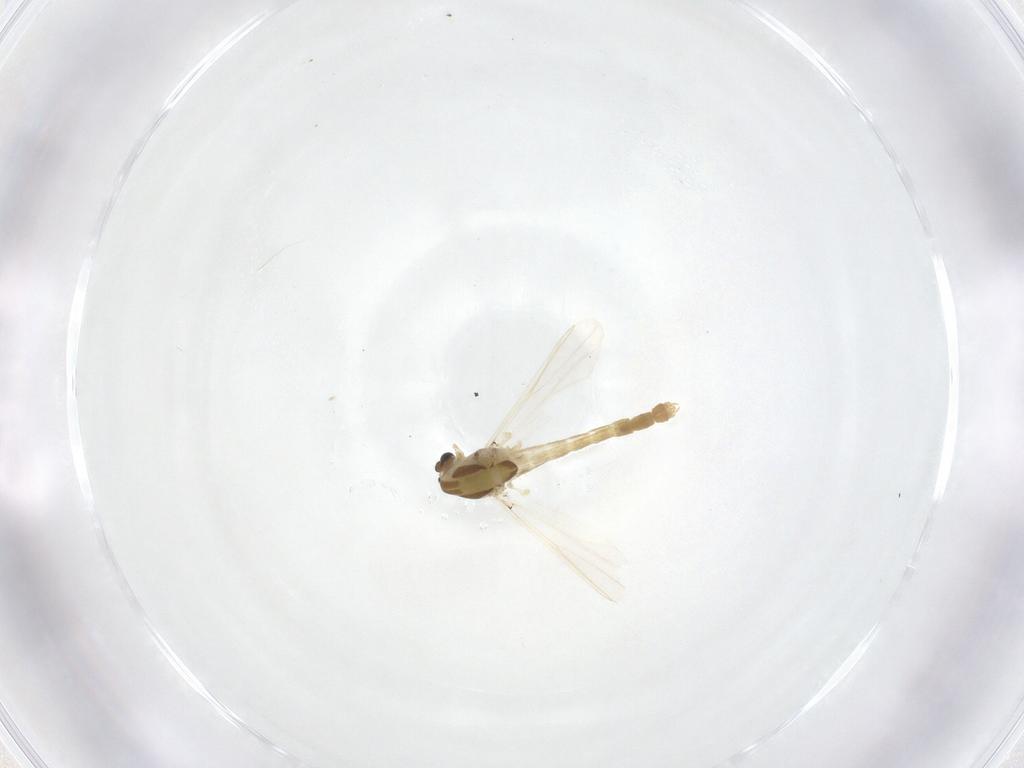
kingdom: Animalia
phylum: Arthropoda
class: Insecta
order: Diptera
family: Chironomidae
